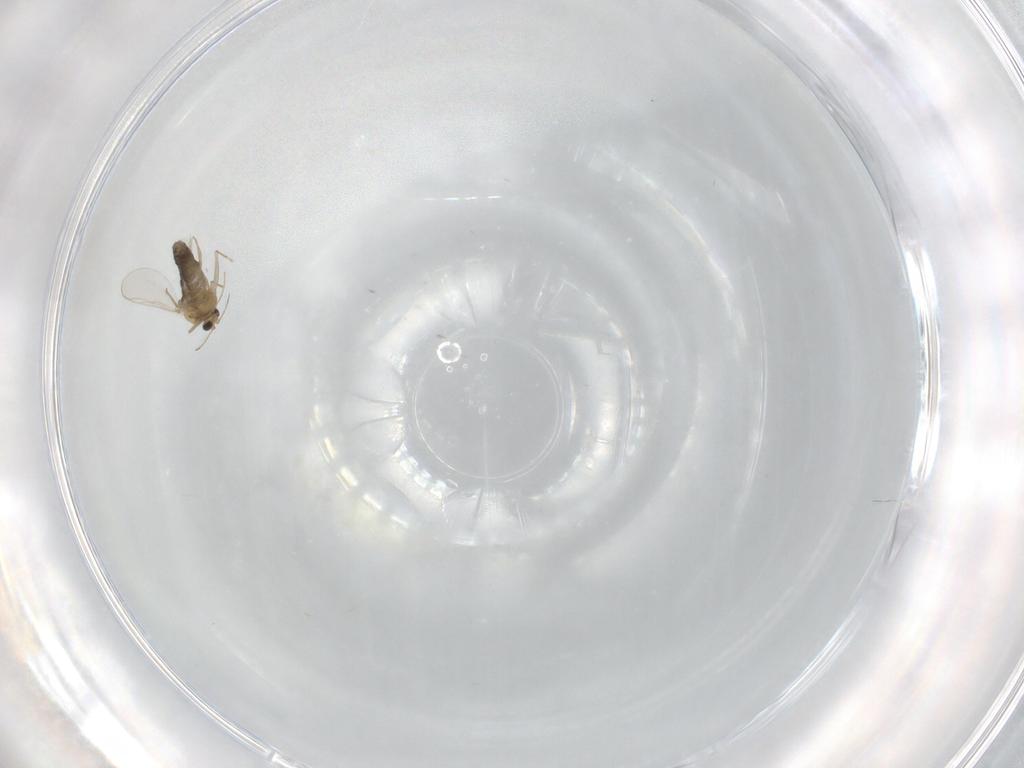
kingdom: Animalia
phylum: Arthropoda
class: Insecta
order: Diptera
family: Chironomidae
